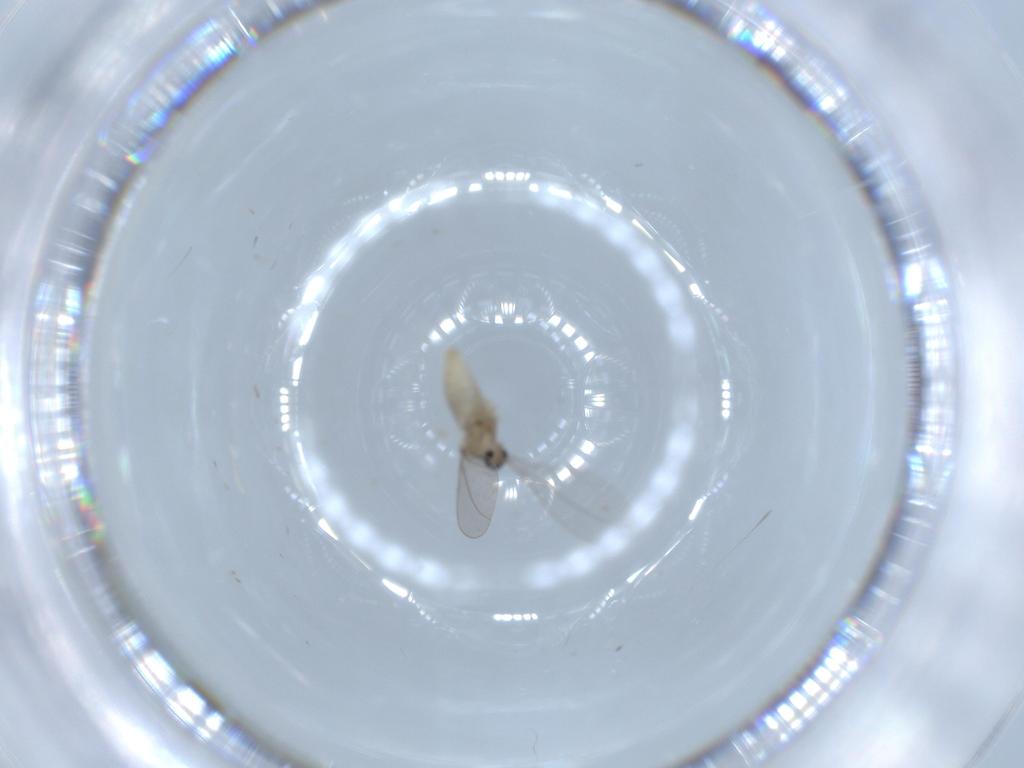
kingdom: Animalia
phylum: Arthropoda
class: Insecta
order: Diptera
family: Cecidomyiidae
